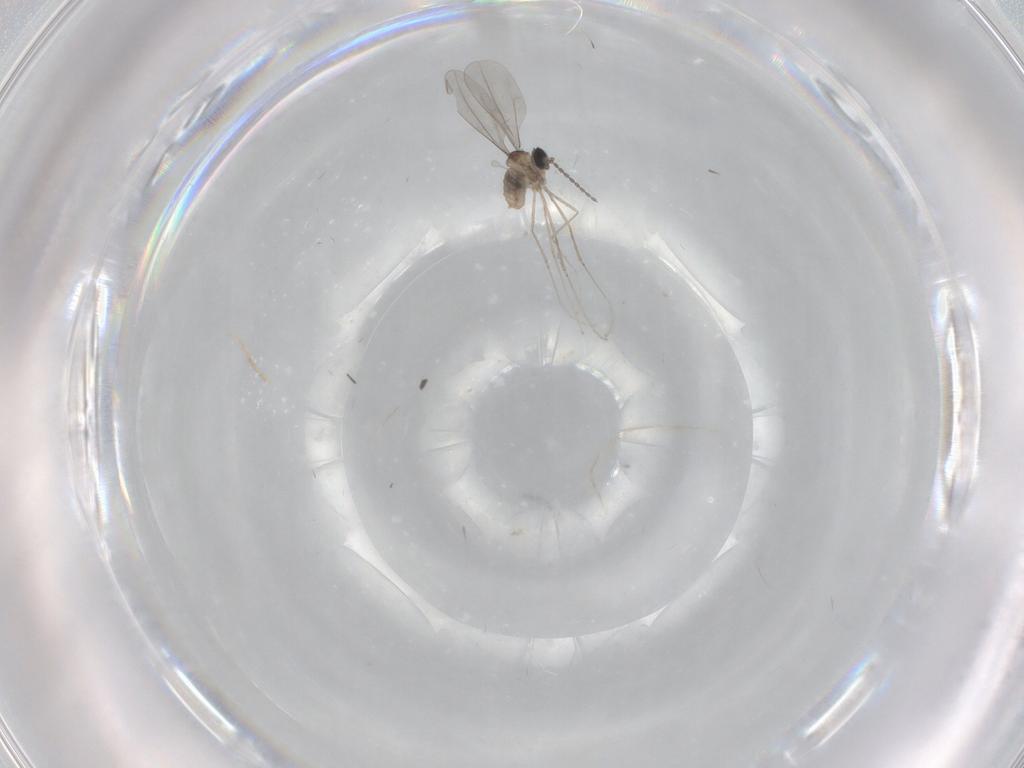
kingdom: Animalia
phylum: Arthropoda
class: Insecta
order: Diptera
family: Cecidomyiidae
